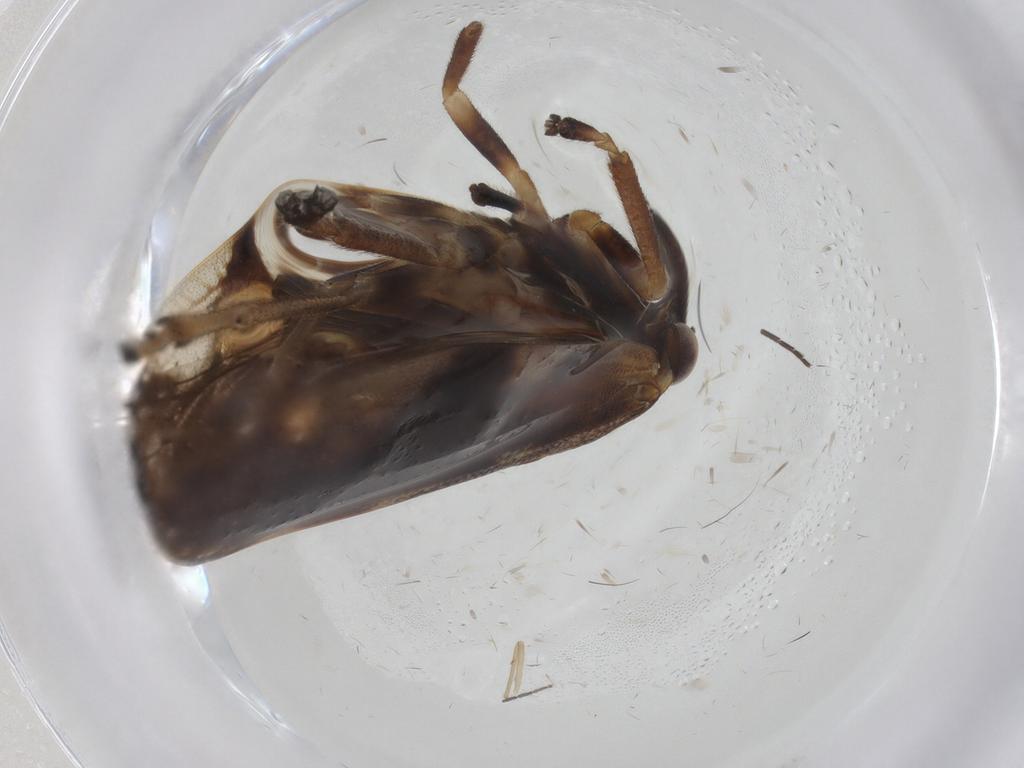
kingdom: Animalia
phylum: Arthropoda
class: Insecta
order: Hemiptera
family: Aphrophoridae
